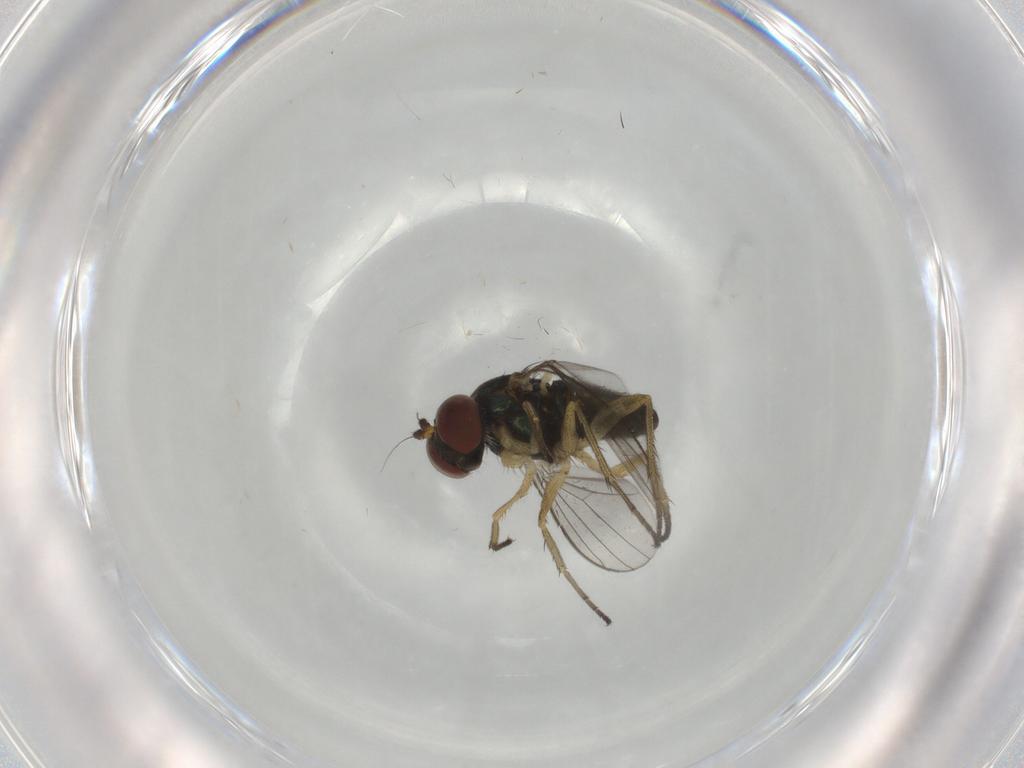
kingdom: Animalia
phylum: Arthropoda
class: Insecta
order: Diptera
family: Dolichopodidae
